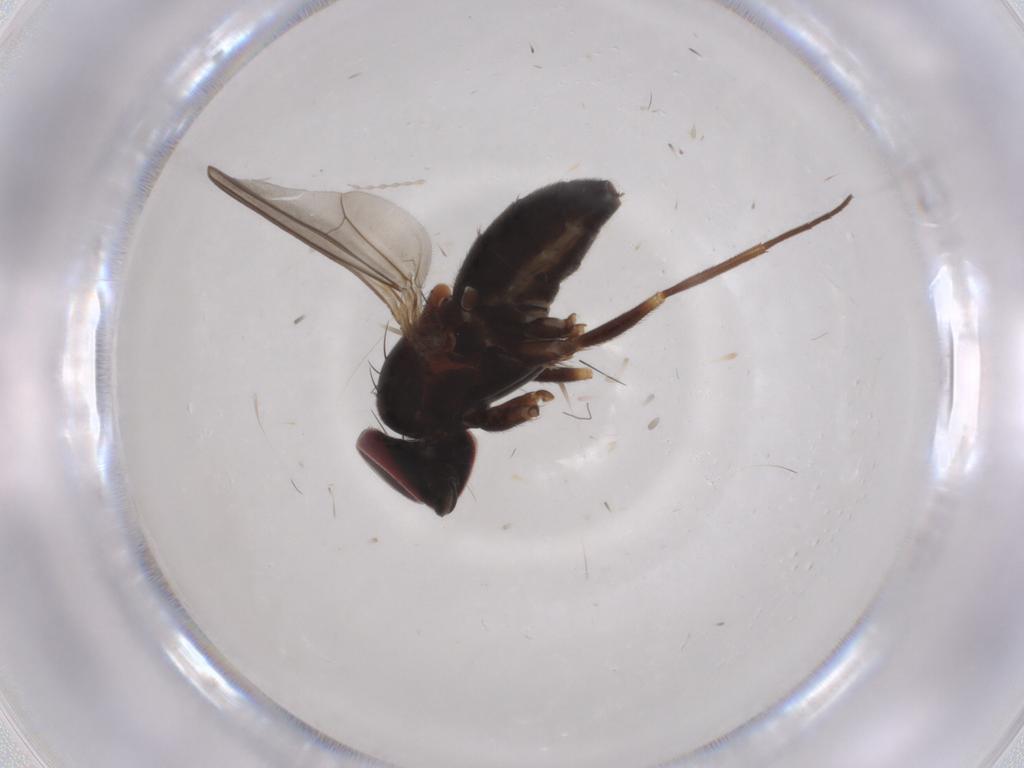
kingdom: Animalia
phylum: Arthropoda
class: Insecta
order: Diptera
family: Dolichopodidae
